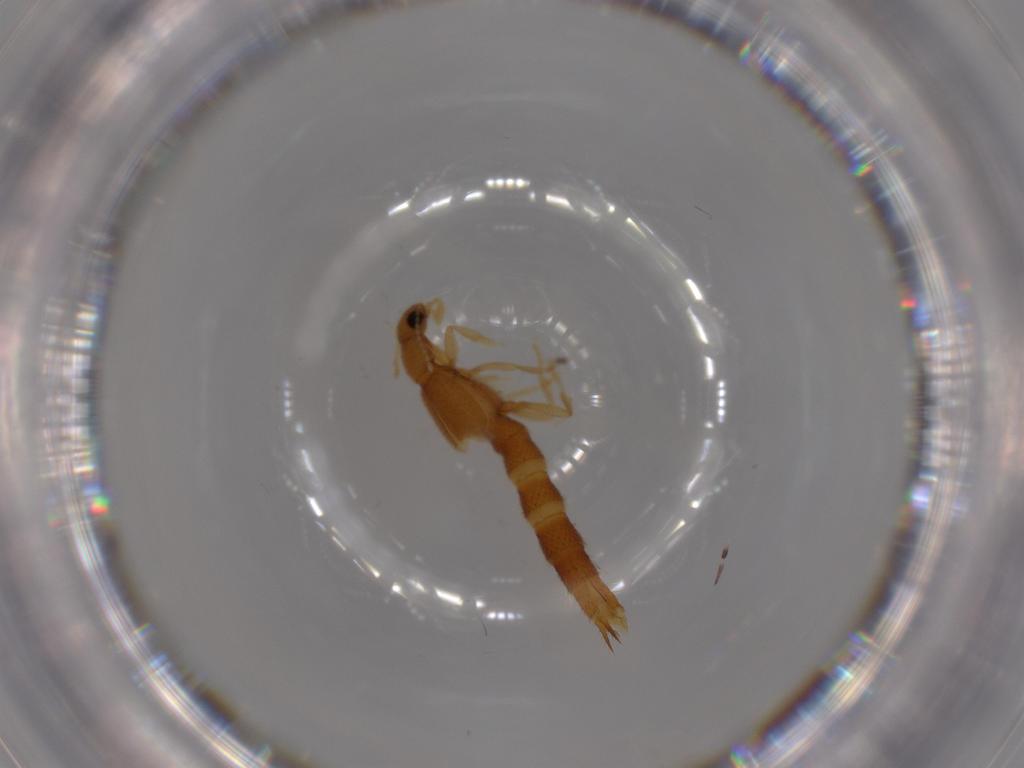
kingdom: Animalia
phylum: Arthropoda
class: Insecta
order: Coleoptera
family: Staphylinidae
